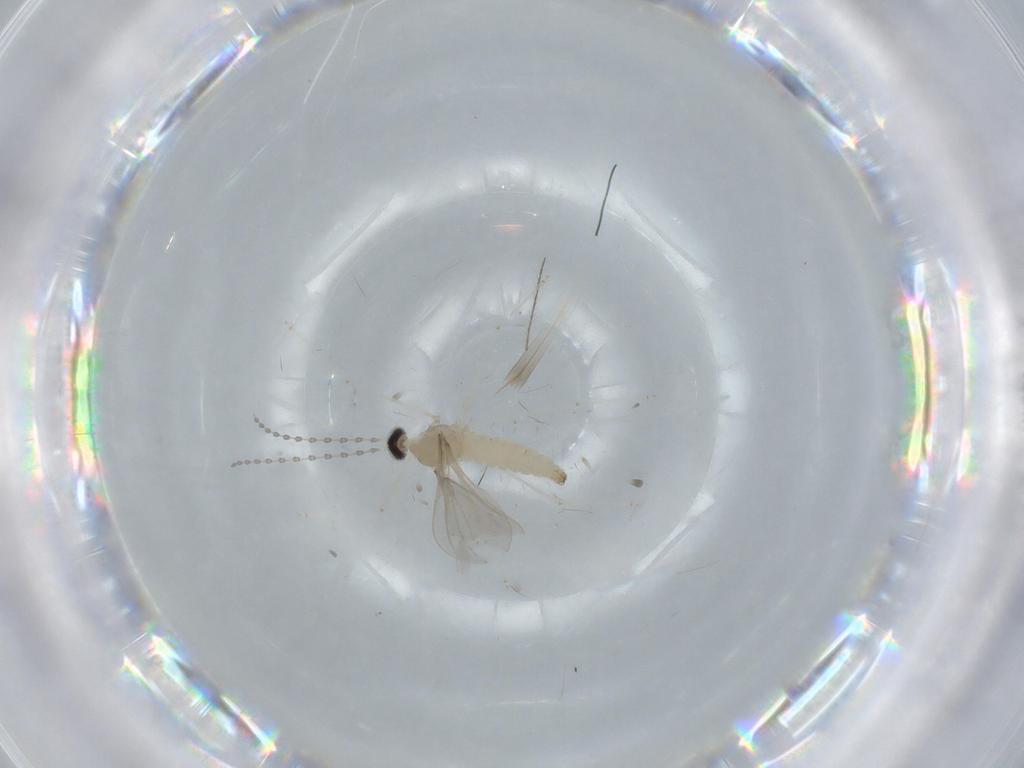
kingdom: Animalia
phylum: Arthropoda
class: Insecta
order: Diptera
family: Cecidomyiidae
